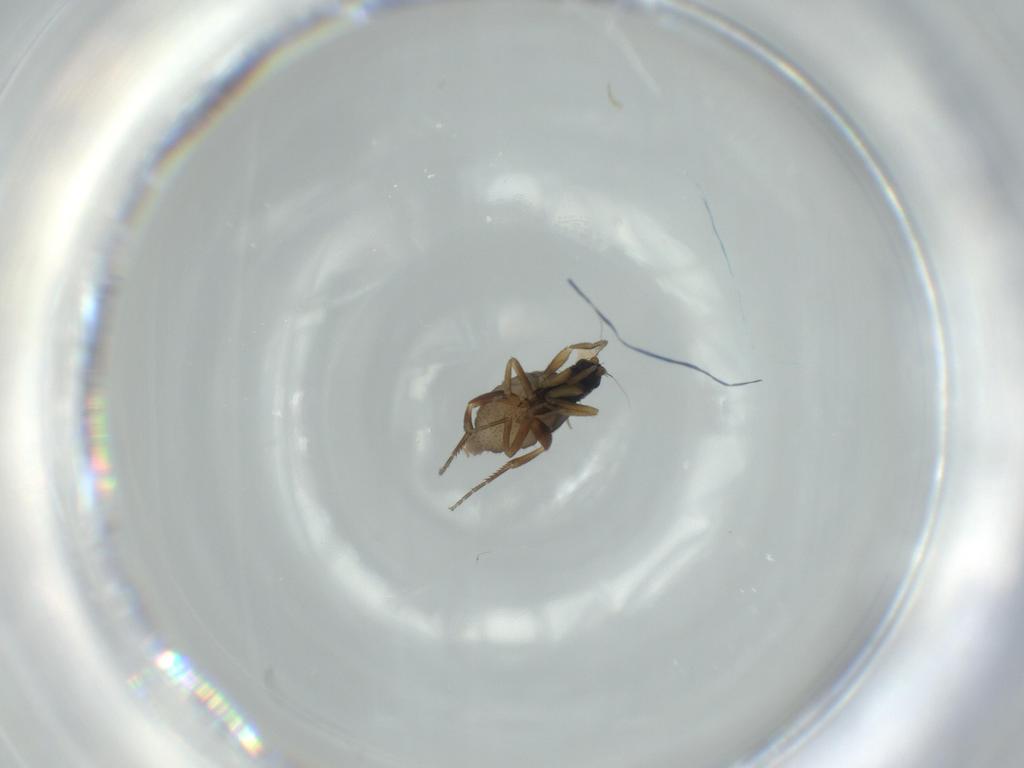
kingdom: Animalia
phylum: Arthropoda
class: Insecta
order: Diptera
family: Phoridae
